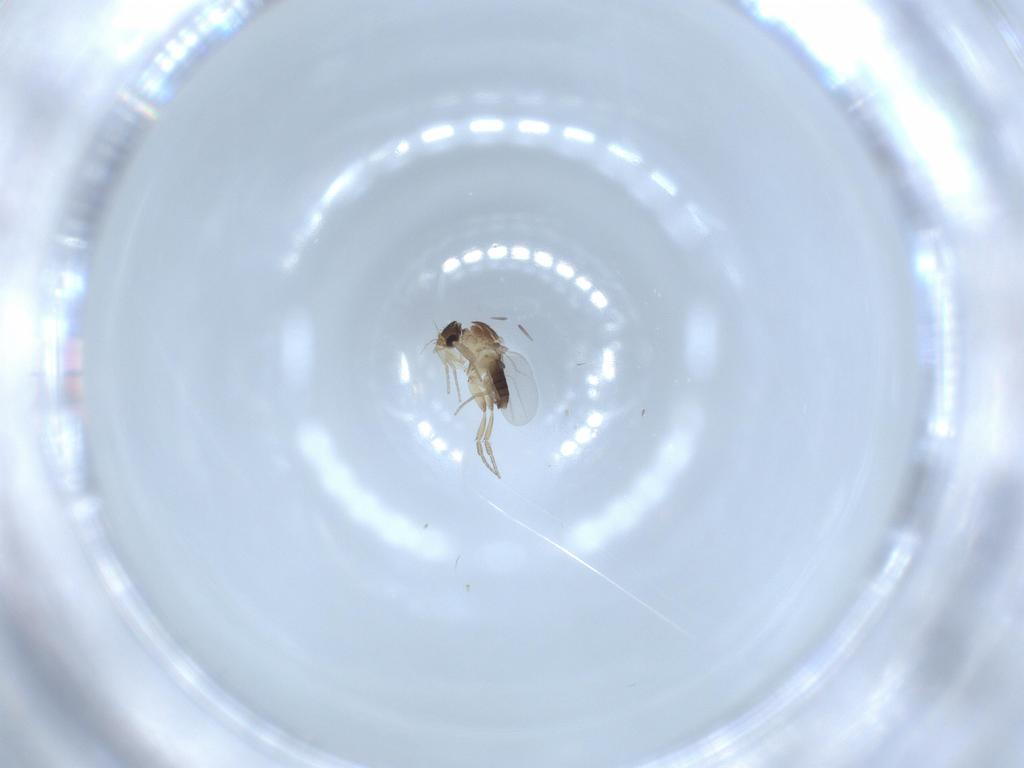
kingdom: Animalia
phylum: Arthropoda
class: Insecta
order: Diptera
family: Phoridae
